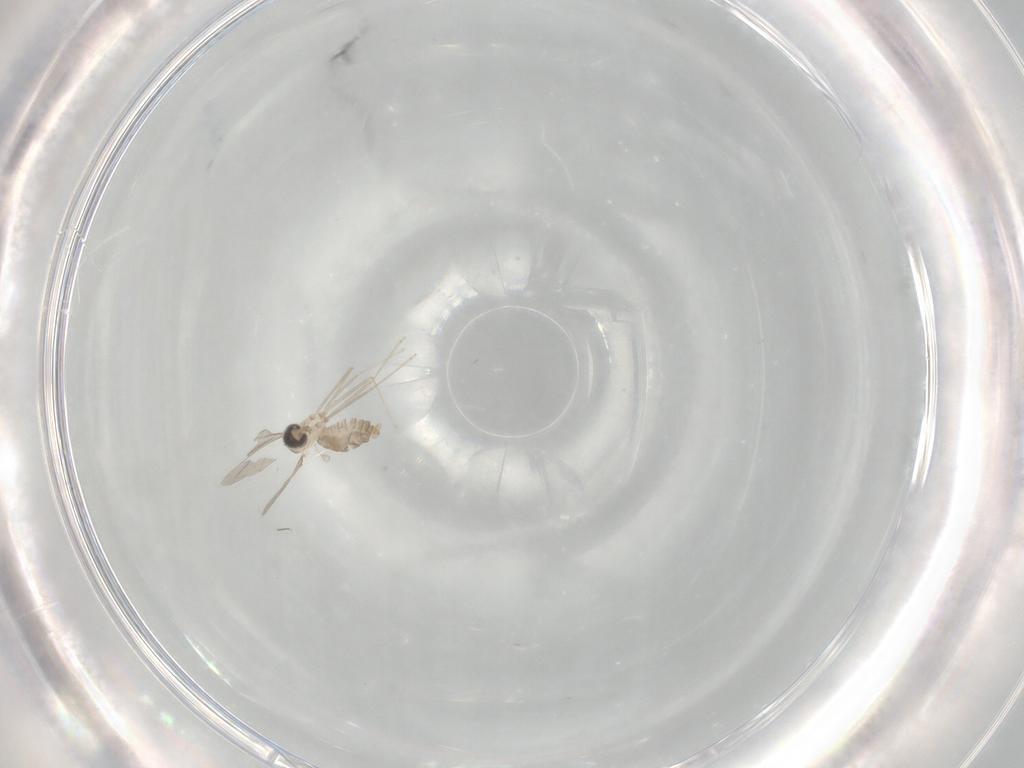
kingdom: Animalia
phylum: Arthropoda
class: Insecta
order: Diptera
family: Cecidomyiidae
